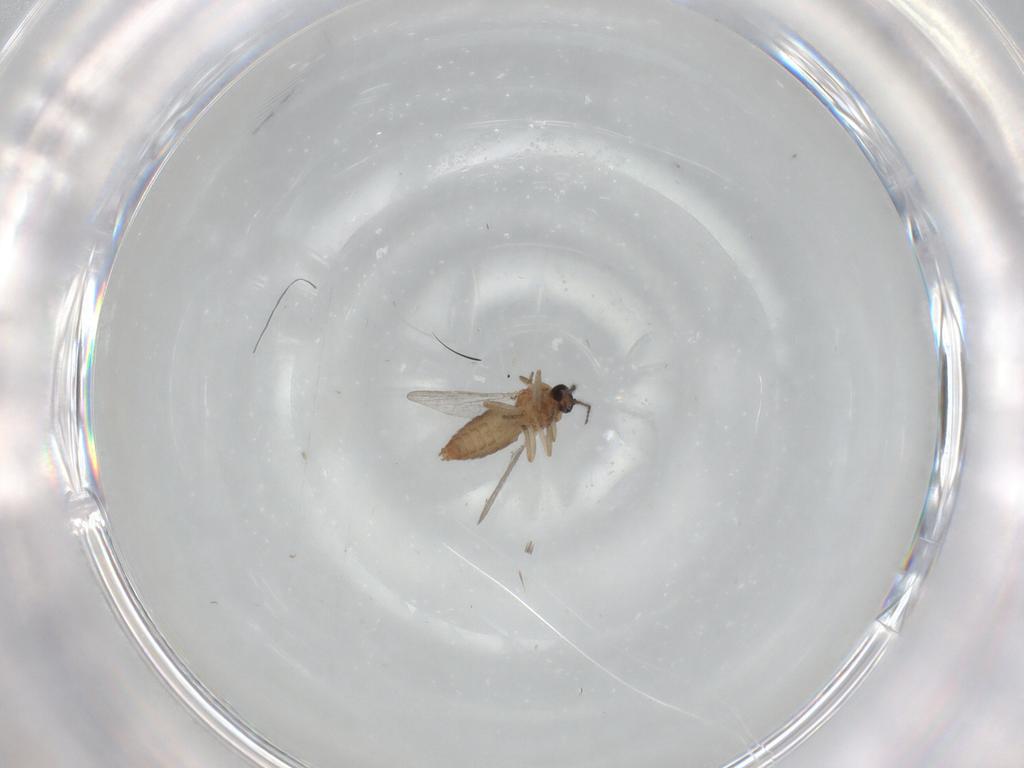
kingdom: Animalia
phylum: Arthropoda
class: Insecta
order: Diptera
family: Ceratopogonidae
